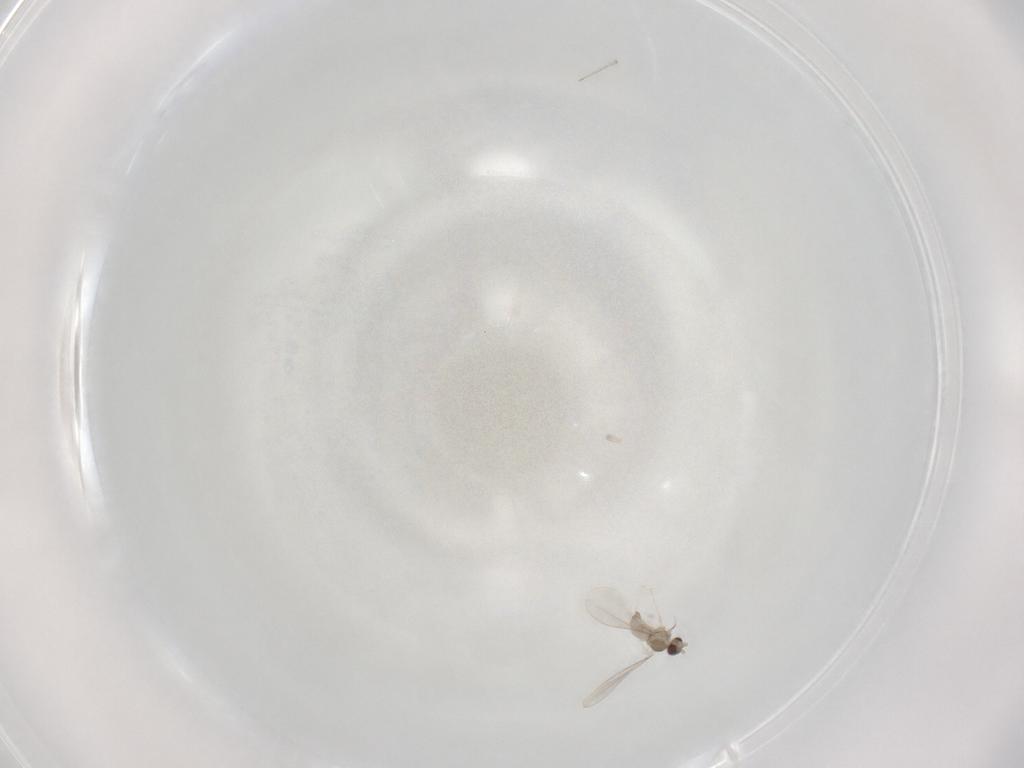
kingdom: Animalia
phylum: Arthropoda
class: Insecta
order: Diptera
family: Cecidomyiidae
